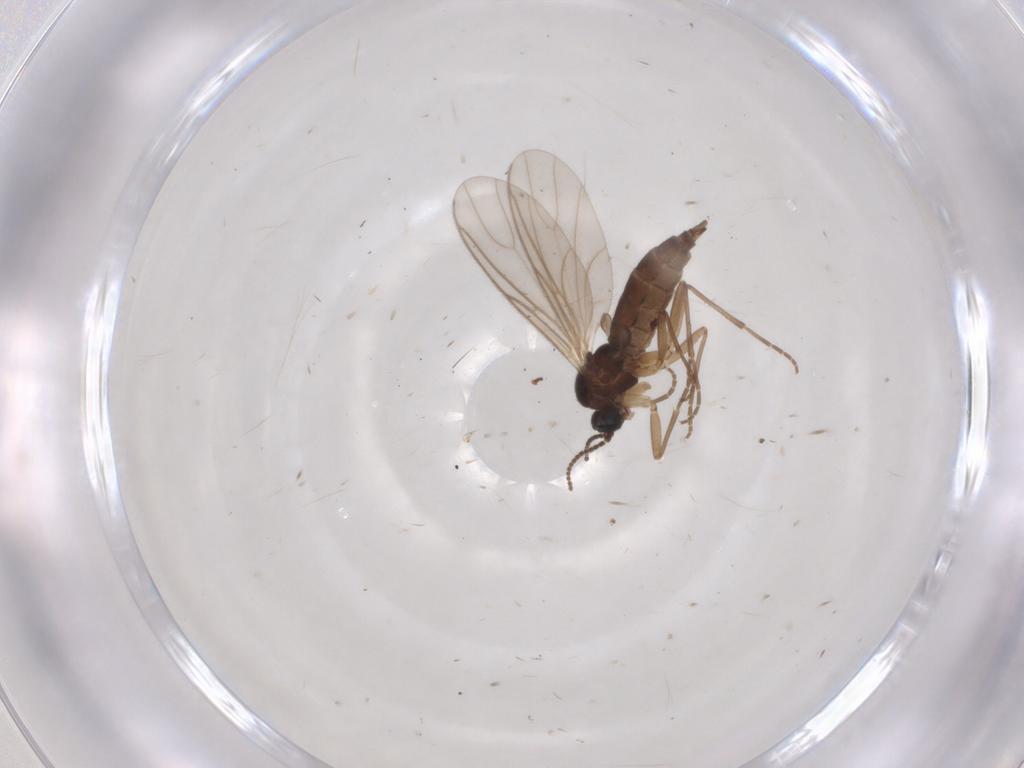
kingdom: Animalia
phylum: Arthropoda
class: Insecta
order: Diptera
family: Sciaridae
